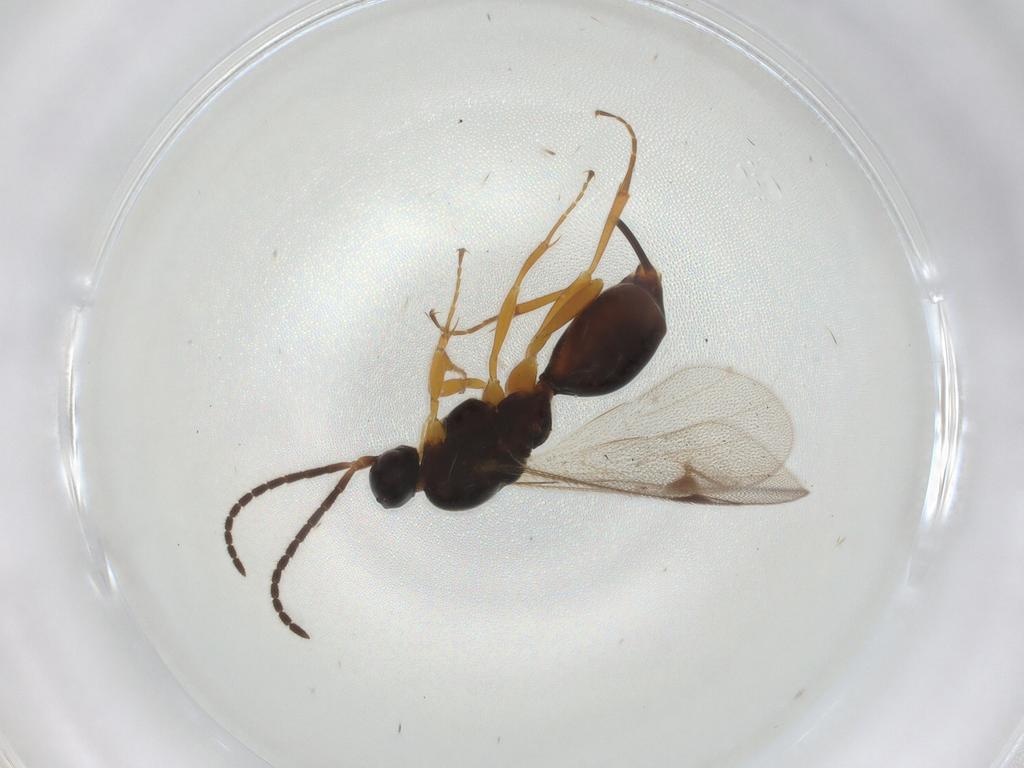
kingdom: Animalia
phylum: Arthropoda
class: Insecta
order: Hymenoptera
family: Proctotrupidae
